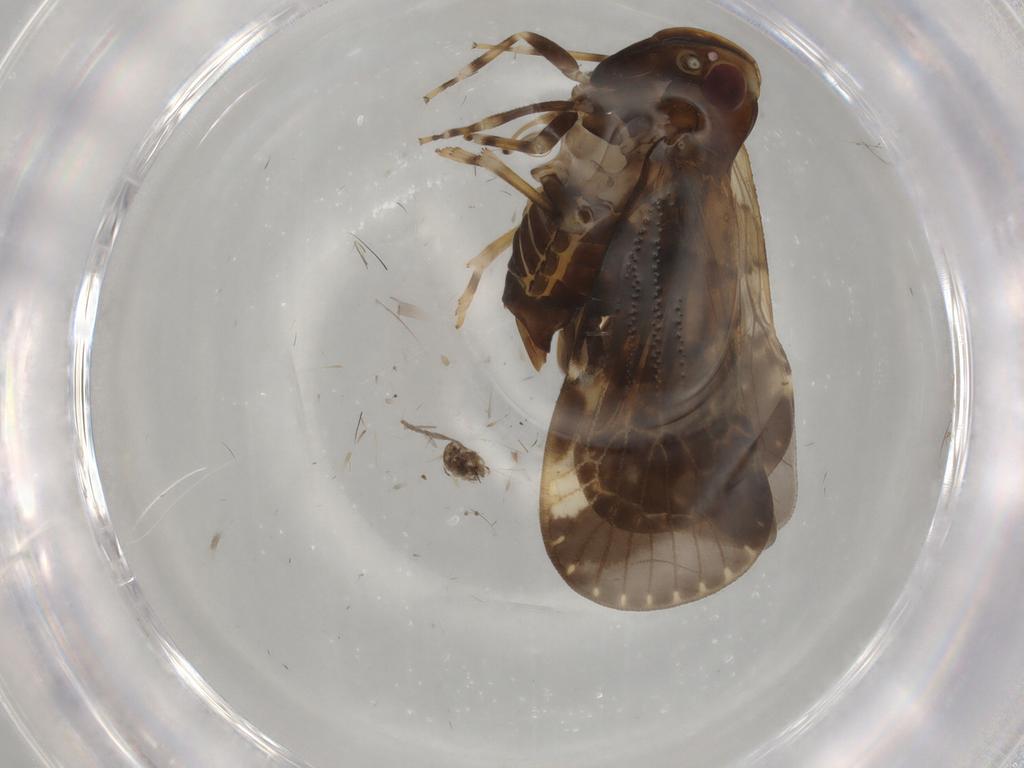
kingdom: Animalia
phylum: Arthropoda
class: Insecta
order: Hemiptera
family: Cixiidae
